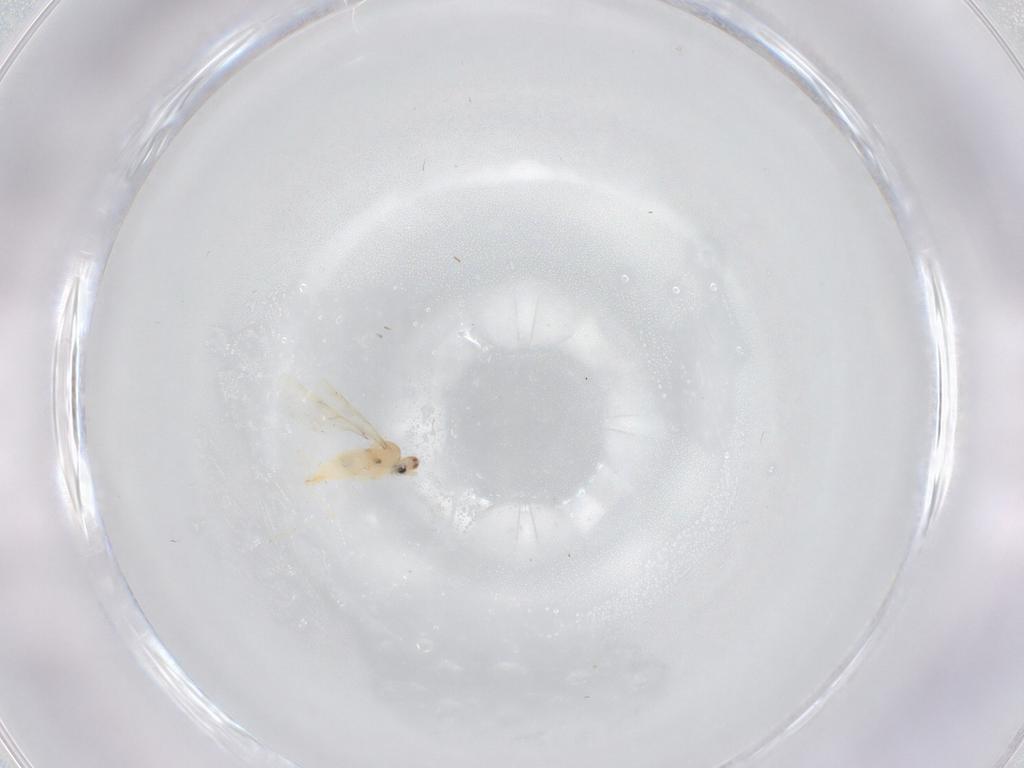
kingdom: Animalia
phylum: Arthropoda
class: Insecta
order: Diptera
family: Cecidomyiidae
